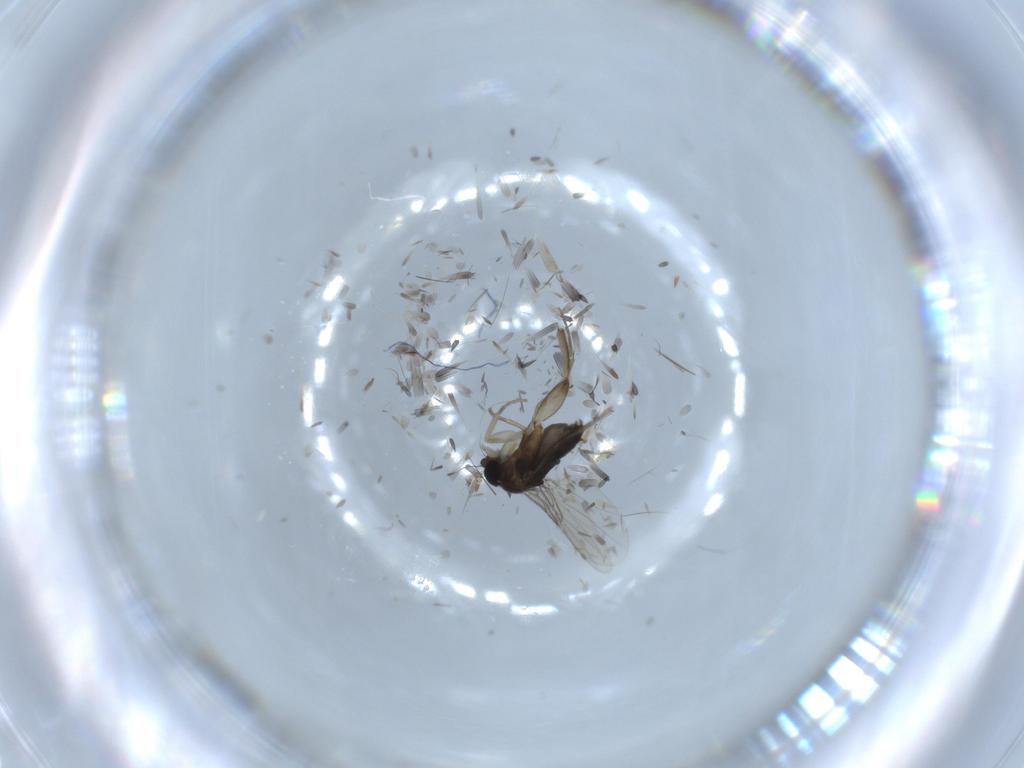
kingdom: Animalia
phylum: Arthropoda
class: Insecta
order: Diptera
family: Phoridae
